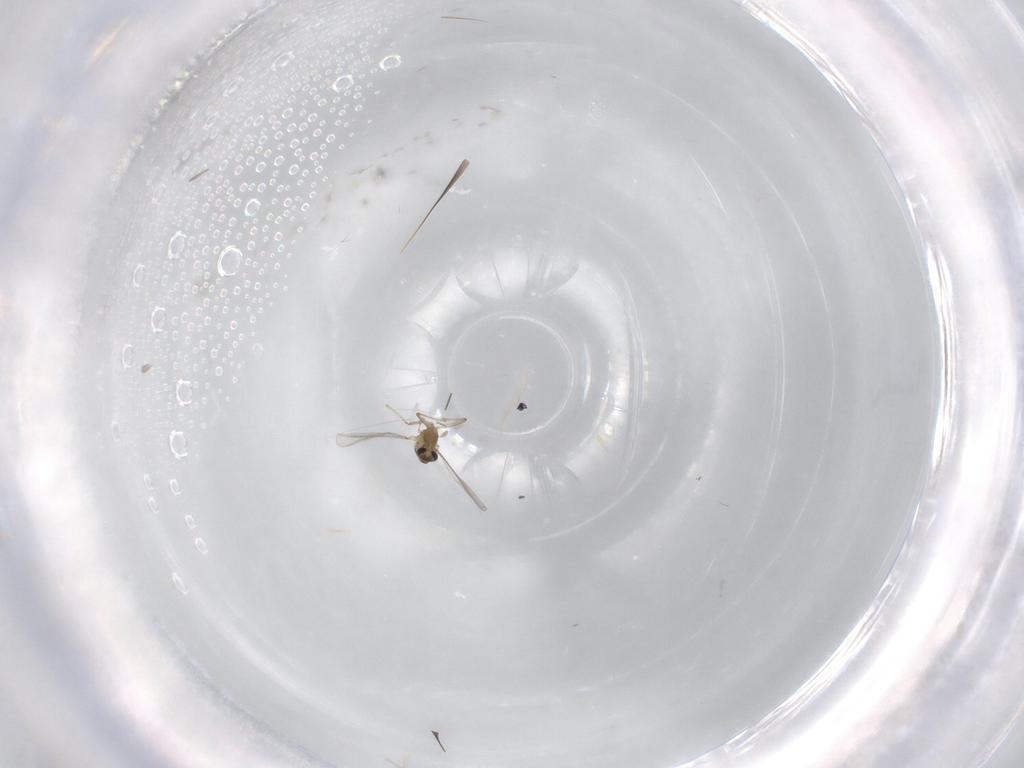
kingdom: Animalia
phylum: Arthropoda
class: Insecta
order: Diptera
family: Chironomidae
